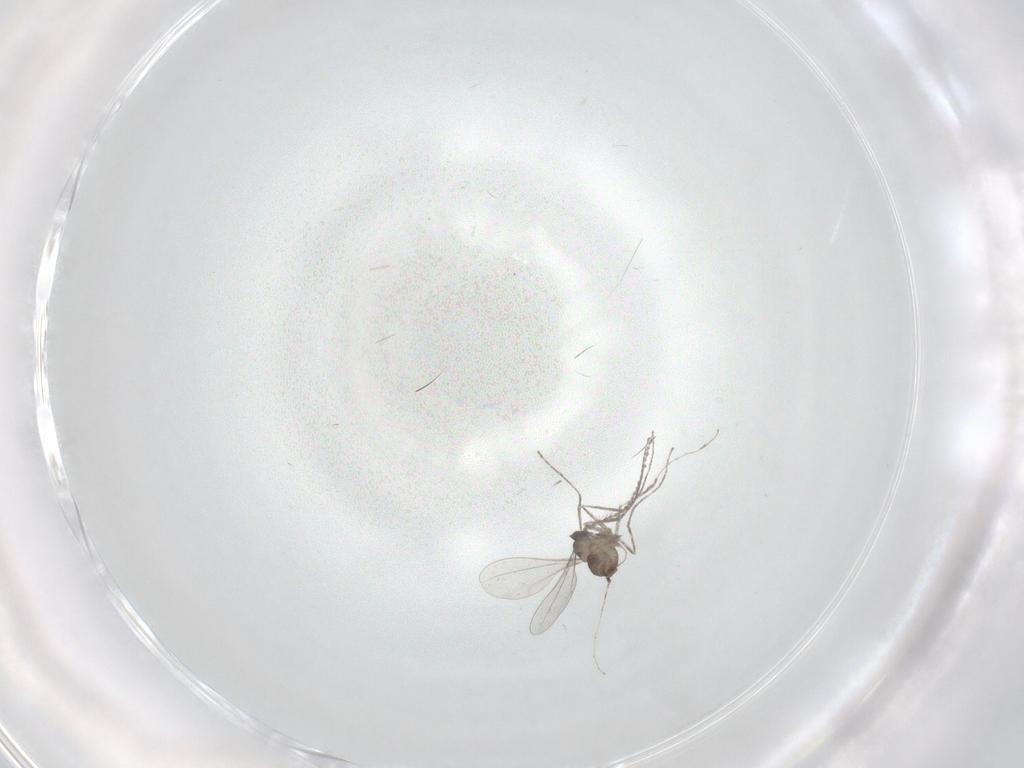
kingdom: Animalia
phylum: Arthropoda
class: Insecta
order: Diptera
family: Cecidomyiidae
